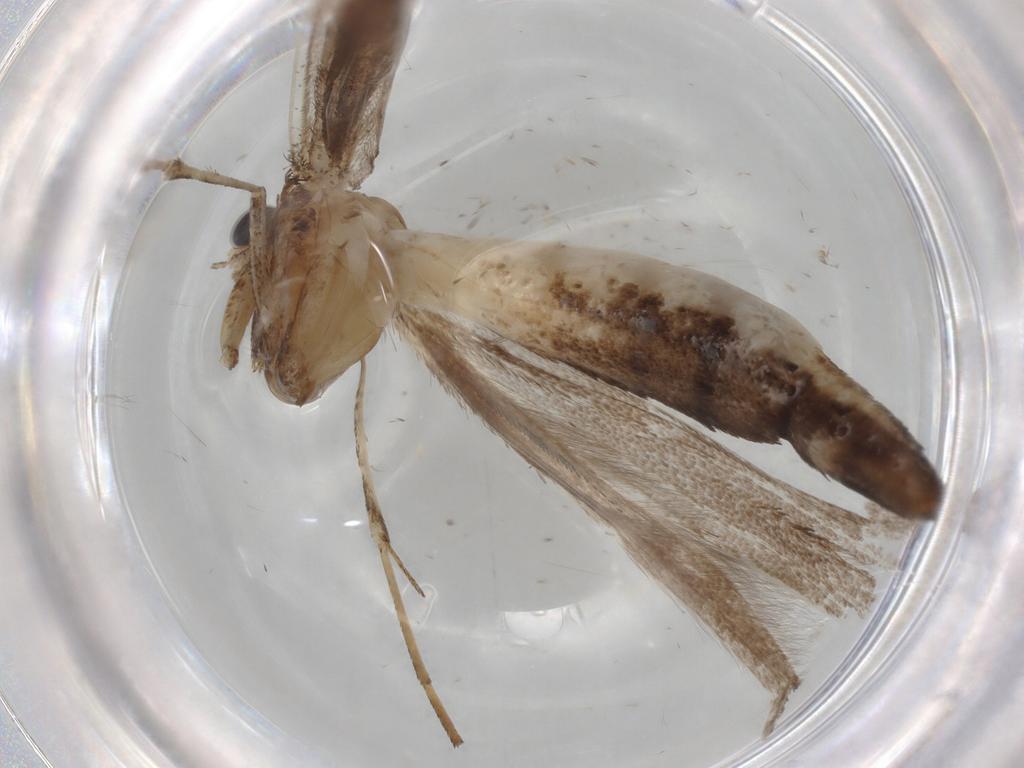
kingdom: Animalia
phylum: Arthropoda
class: Insecta
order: Lepidoptera
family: Pterophoridae
